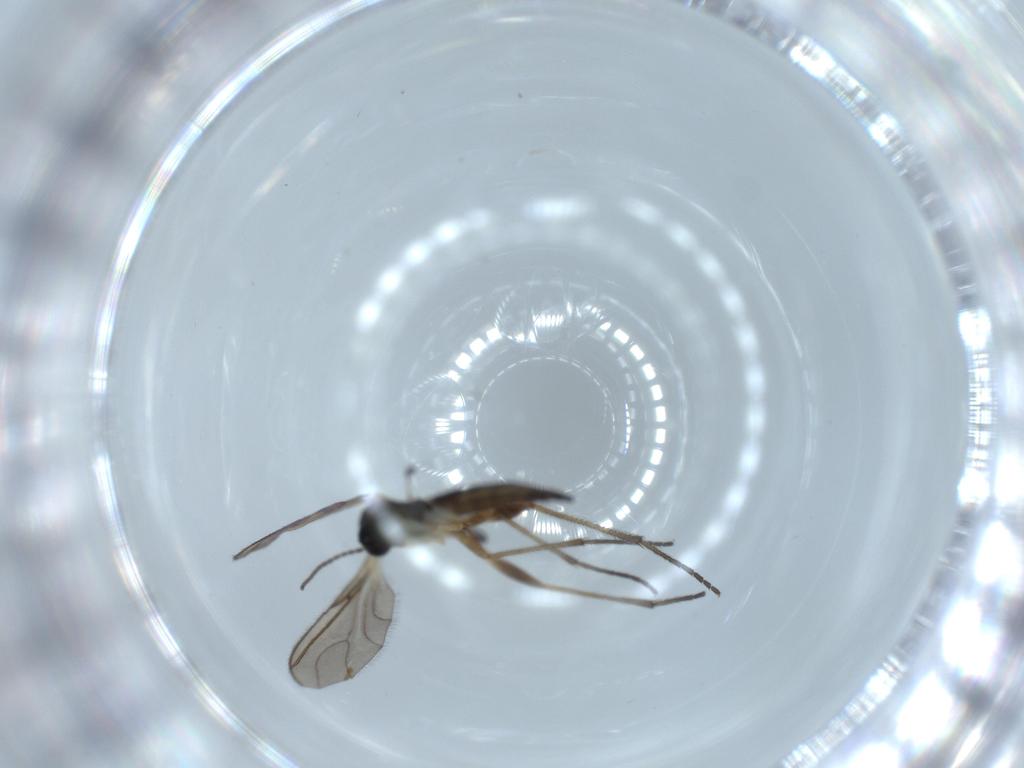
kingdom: Animalia
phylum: Arthropoda
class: Insecta
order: Diptera
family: Sciaridae
